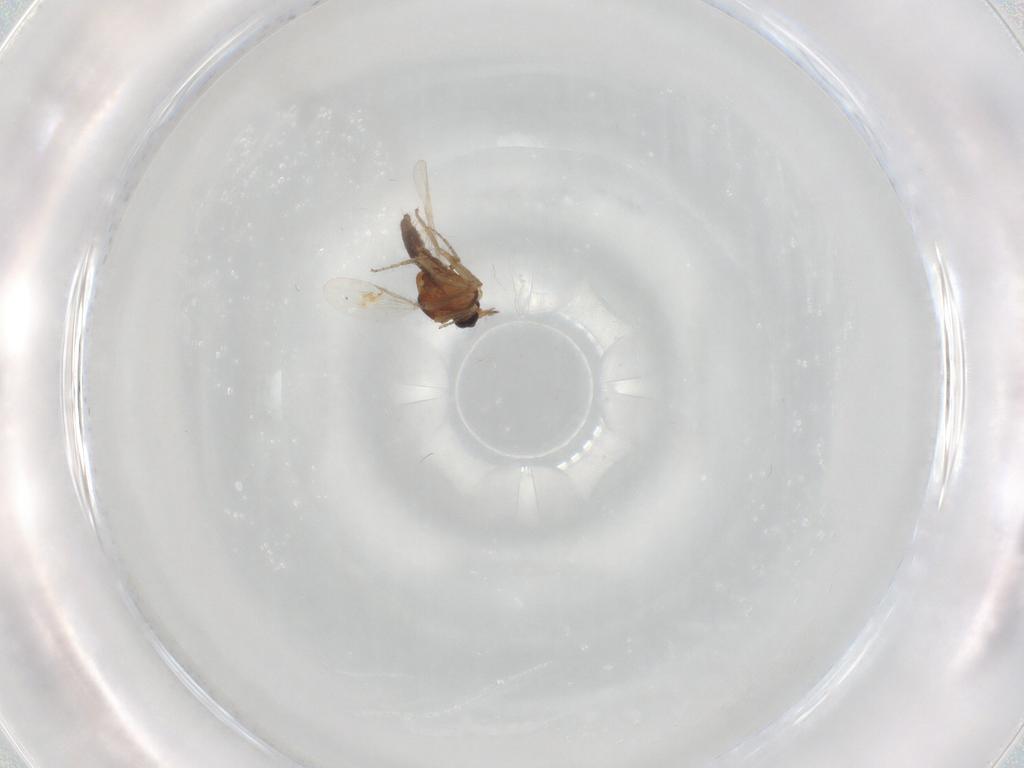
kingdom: Animalia
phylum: Arthropoda
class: Insecta
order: Diptera
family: Ceratopogonidae
